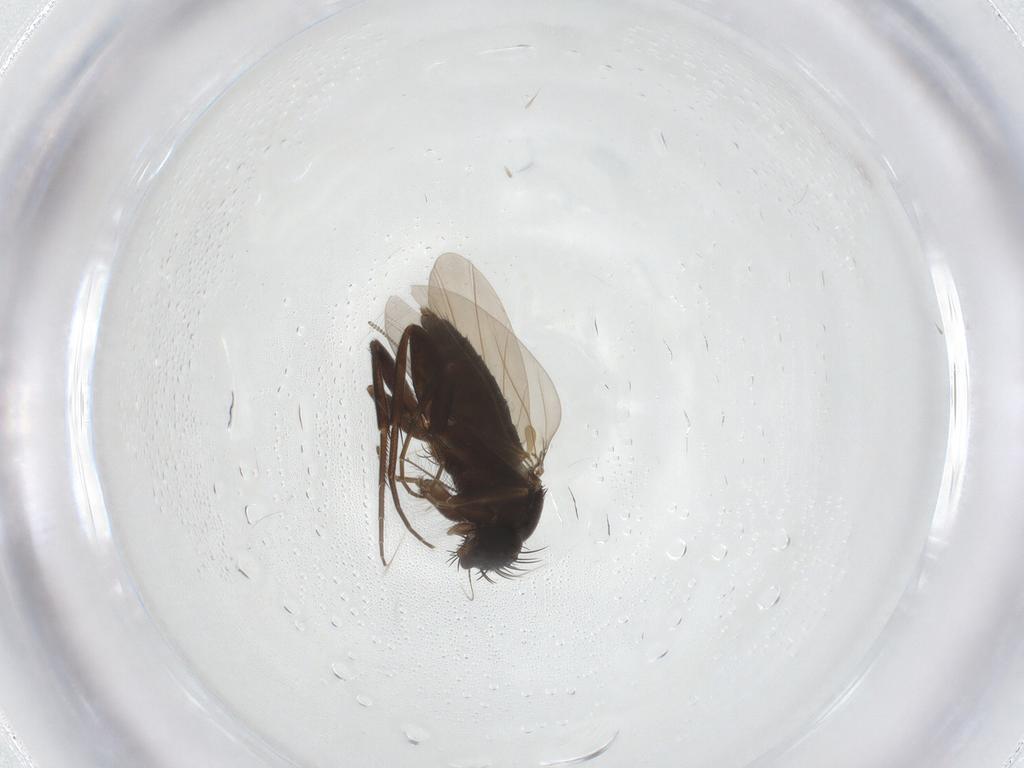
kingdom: Animalia
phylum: Arthropoda
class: Insecta
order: Diptera
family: Phoridae
